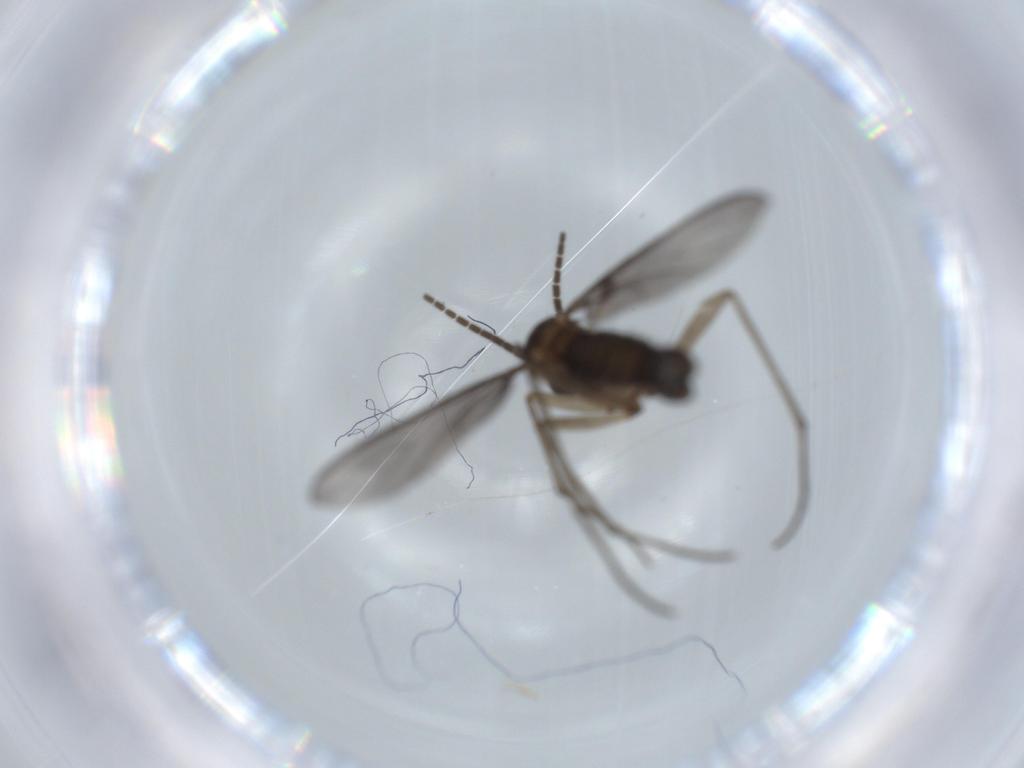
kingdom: Animalia
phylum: Arthropoda
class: Insecta
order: Diptera
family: Sciaridae
